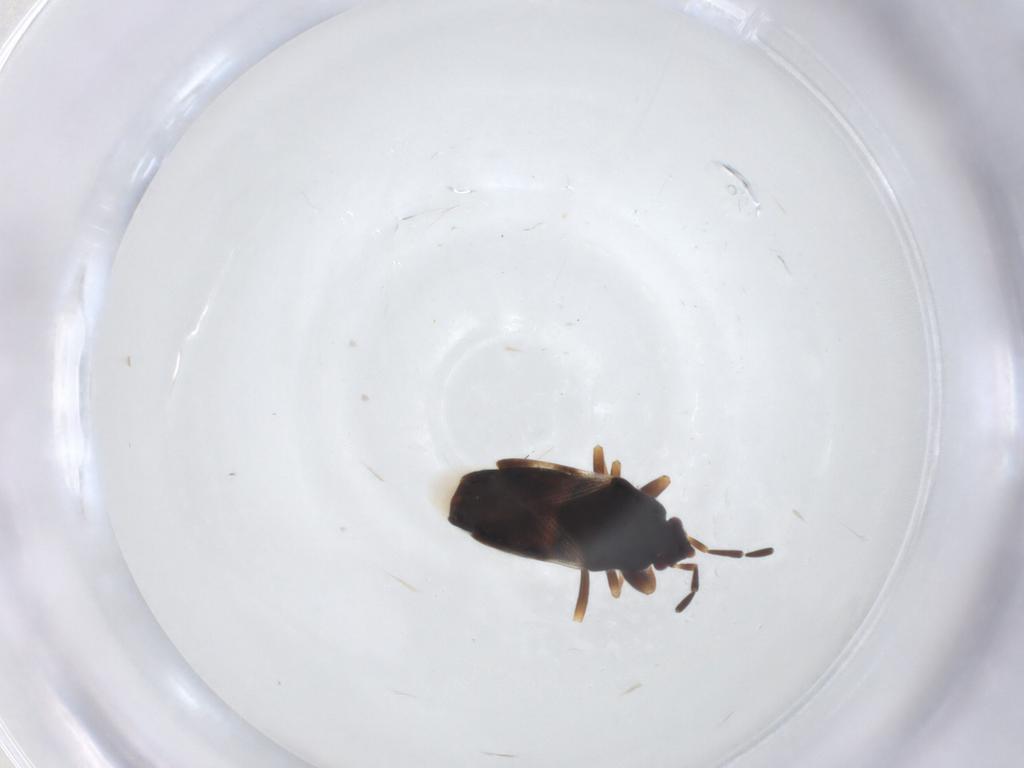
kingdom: Animalia
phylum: Arthropoda
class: Insecta
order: Hemiptera
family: Rhyparochromidae
